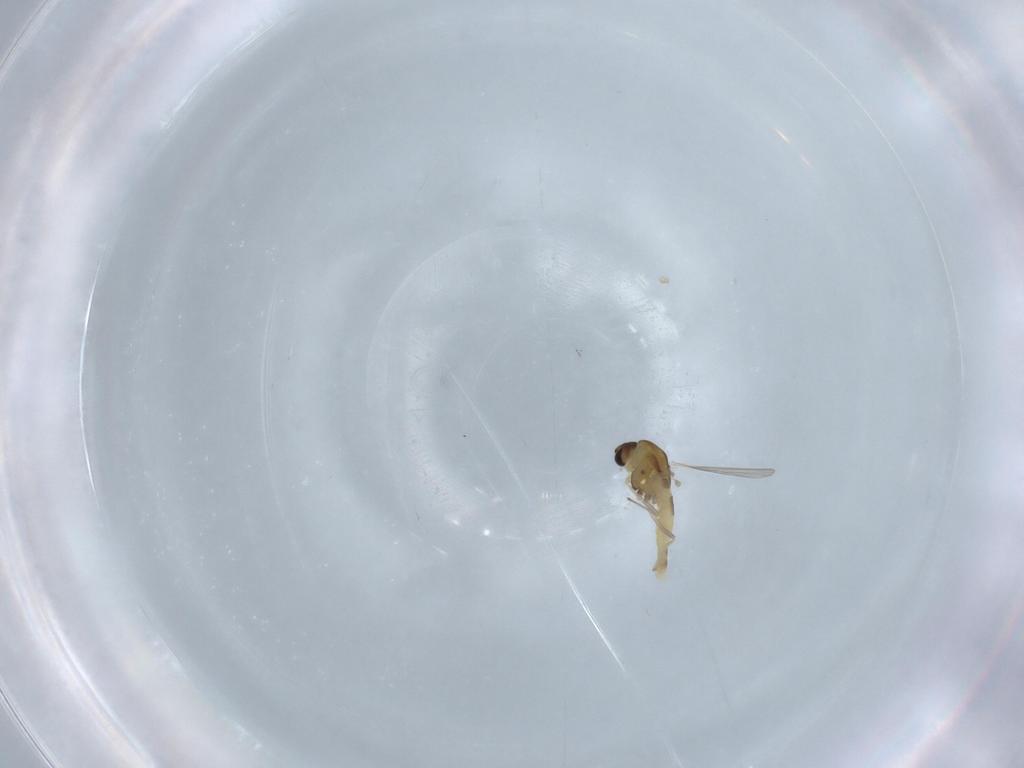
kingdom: Animalia
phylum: Arthropoda
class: Insecta
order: Diptera
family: Chironomidae
